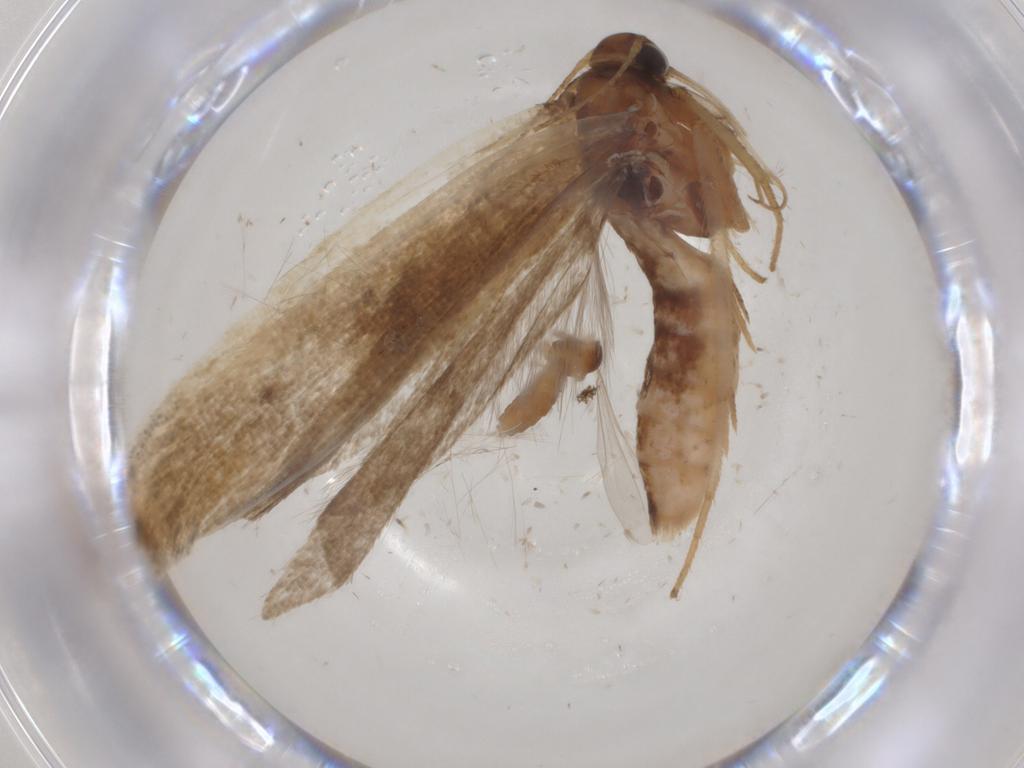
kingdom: Animalia
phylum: Arthropoda
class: Insecta
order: Lepidoptera
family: Gelechiidae
